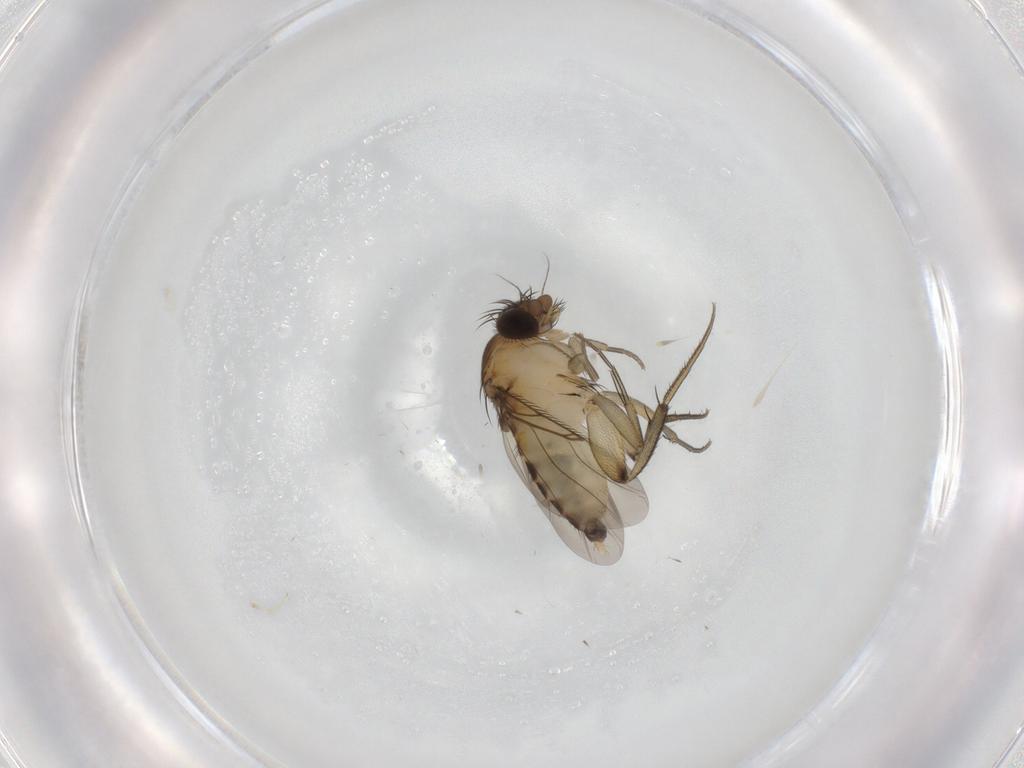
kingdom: Animalia
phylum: Arthropoda
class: Insecta
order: Diptera
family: Phoridae
